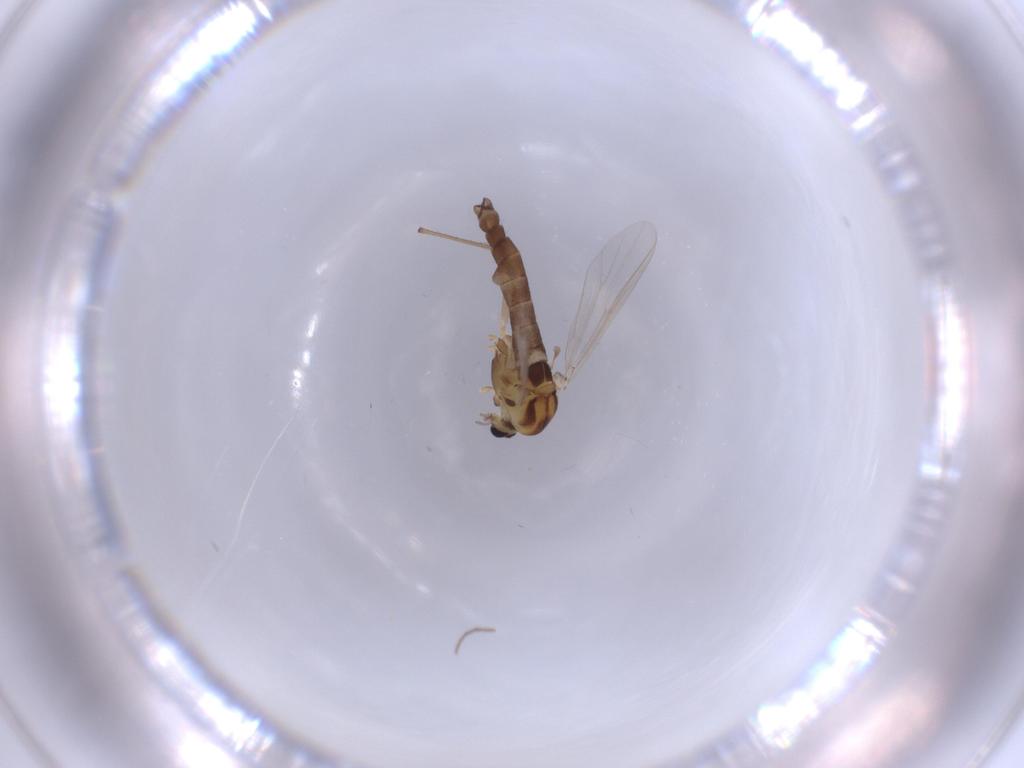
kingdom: Animalia
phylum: Arthropoda
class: Insecta
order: Diptera
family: Chironomidae
